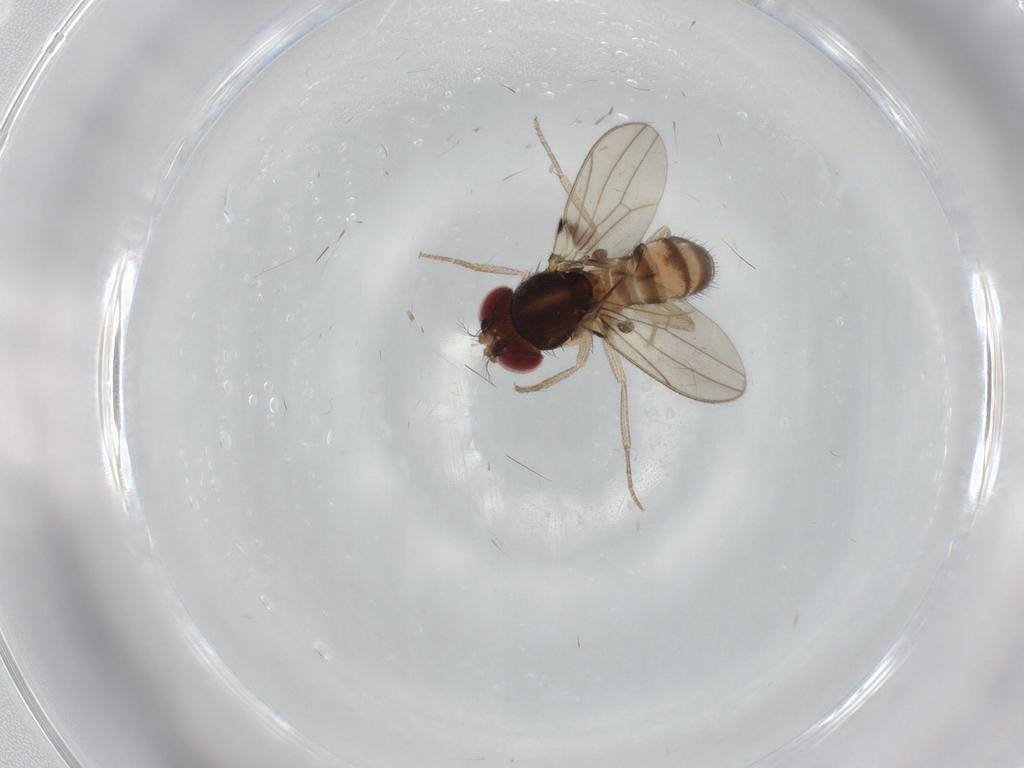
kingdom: Animalia
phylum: Arthropoda
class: Insecta
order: Diptera
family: Drosophilidae
